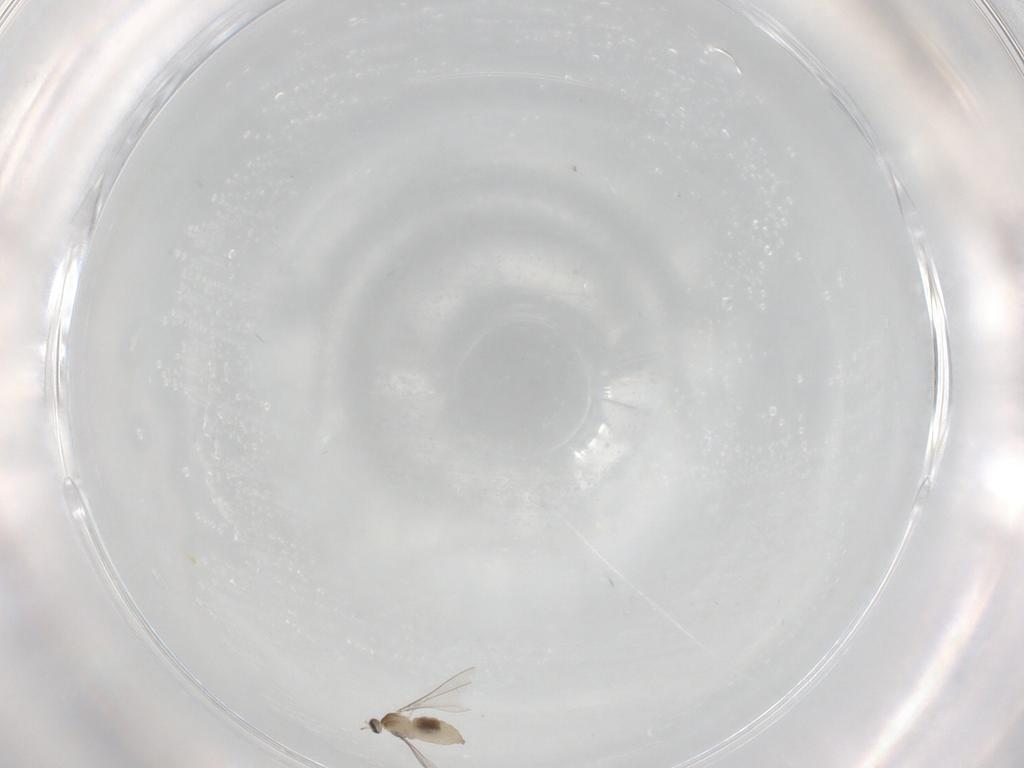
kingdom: Animalia
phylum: Arthropoda
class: Insecta
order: Diptera
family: Cecidomyiidae
